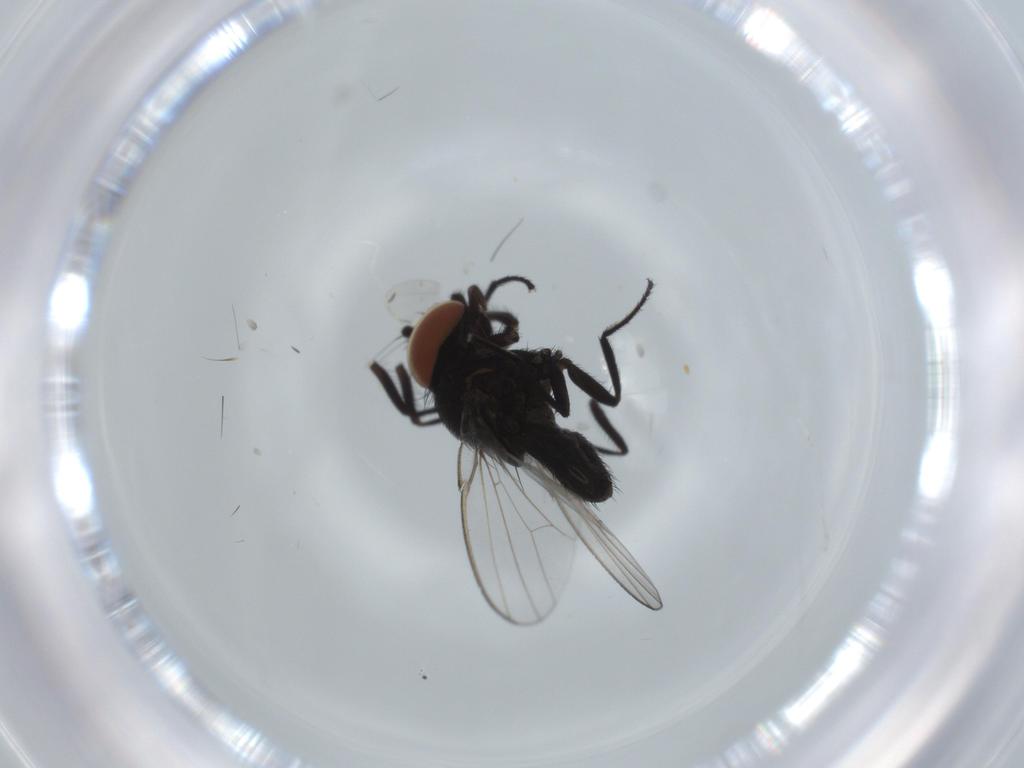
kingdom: Animalia
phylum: Arthropoda
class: Insecta
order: Diptera
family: Milichiidae
